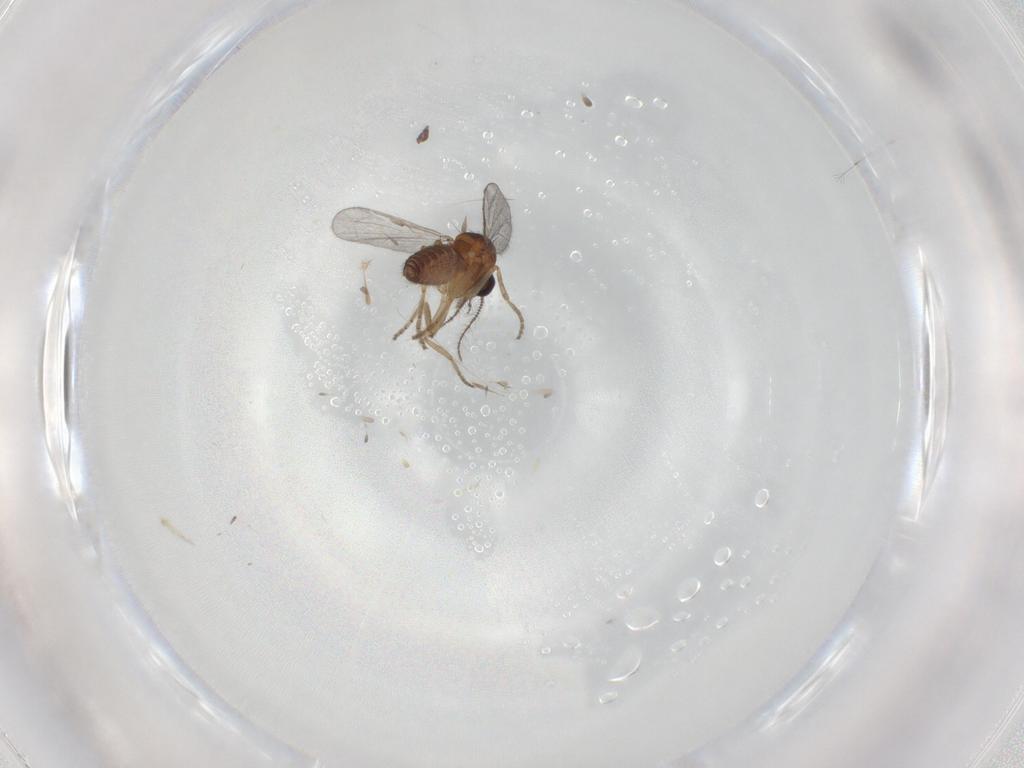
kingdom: Animalia
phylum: Arthropoda
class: Insecta
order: Diptera
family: Ceratopogonidae
